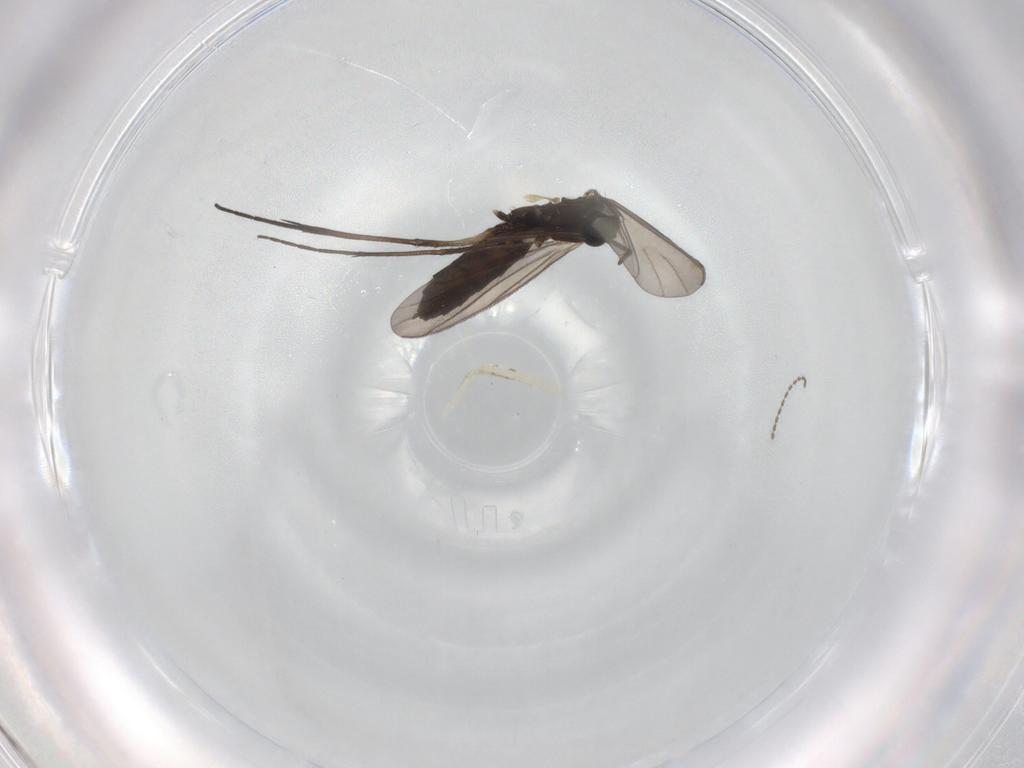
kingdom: Animalia
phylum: Arthropoda
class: Insecta
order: Diptera
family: Keroplatidae
